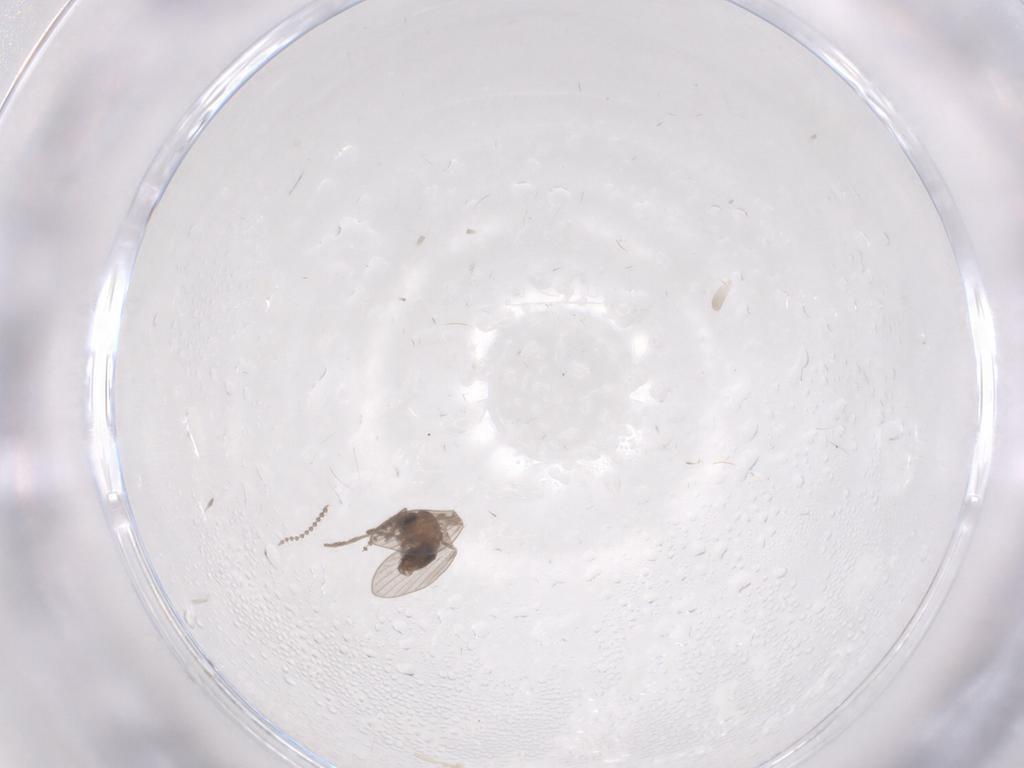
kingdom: Animalia
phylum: Arthropoda
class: Insecta
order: Diptera
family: Psychodidae
